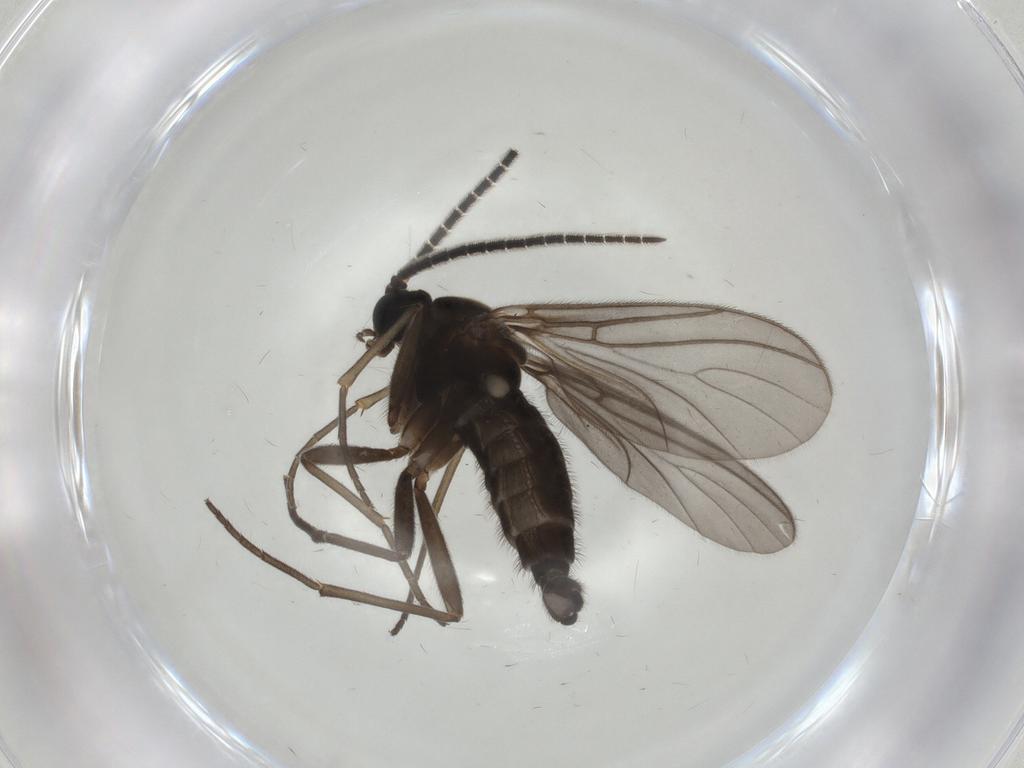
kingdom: Animalia
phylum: Arthropoda
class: Insecta
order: Diptera
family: Sciaridae
